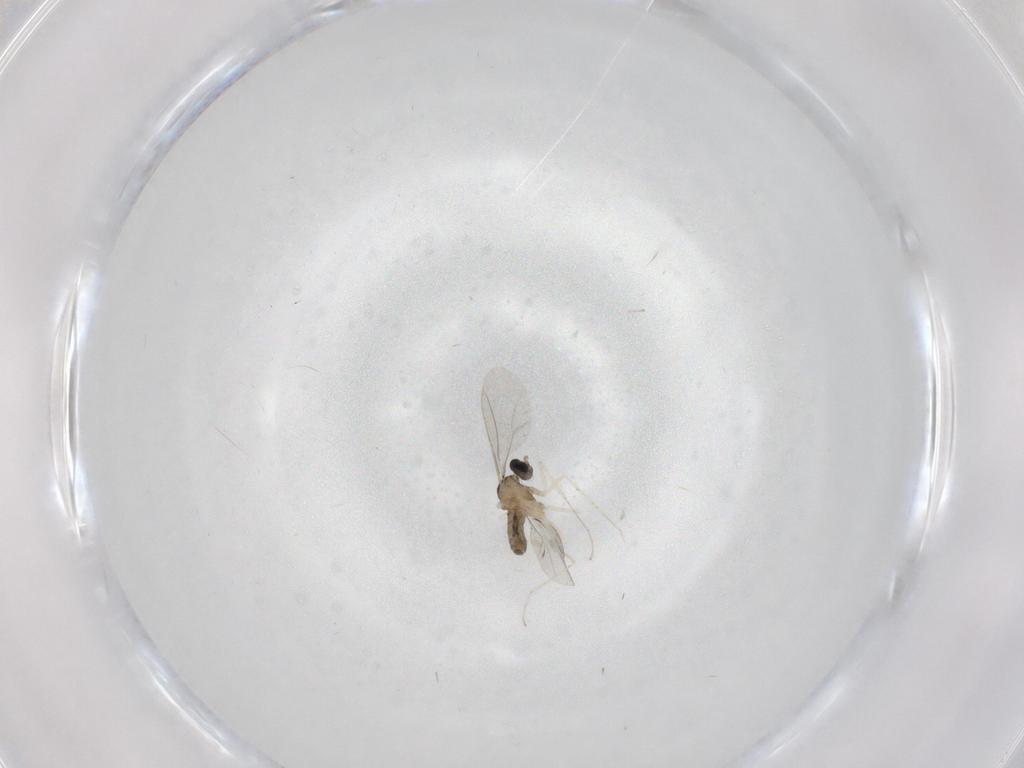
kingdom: Animalia
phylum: Arthropoda
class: Insecta
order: Diptera
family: Cecidomyiidae
